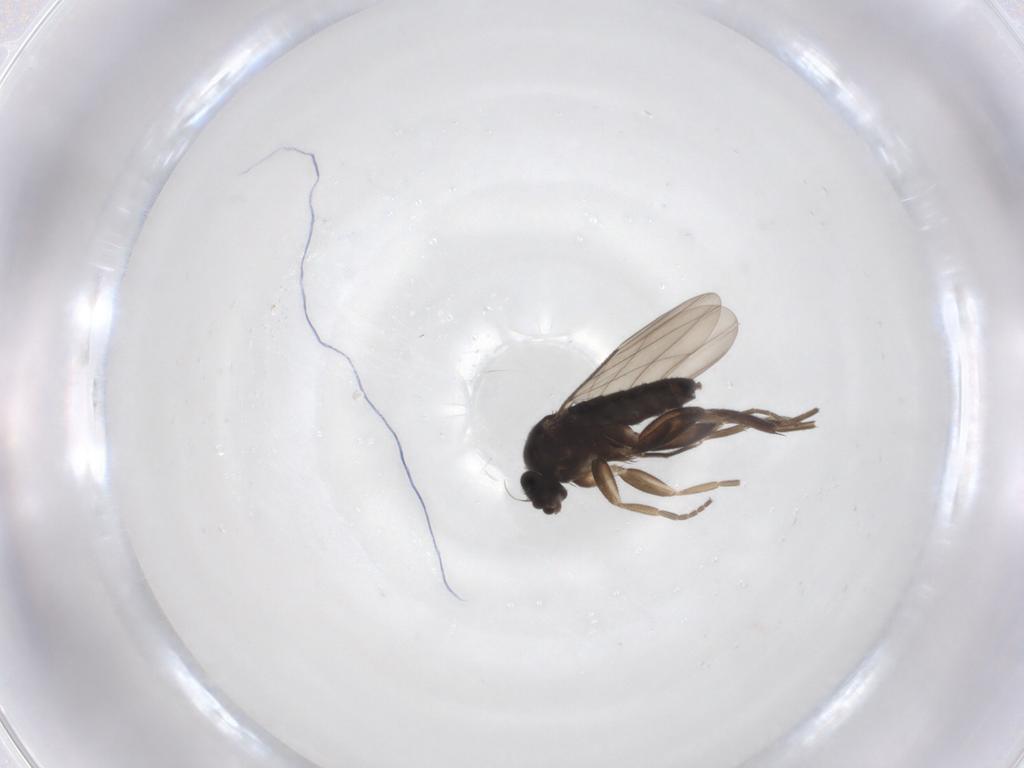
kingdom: Animalia
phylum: Arthropoda
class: Insecta
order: Diptera
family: Phoridae
